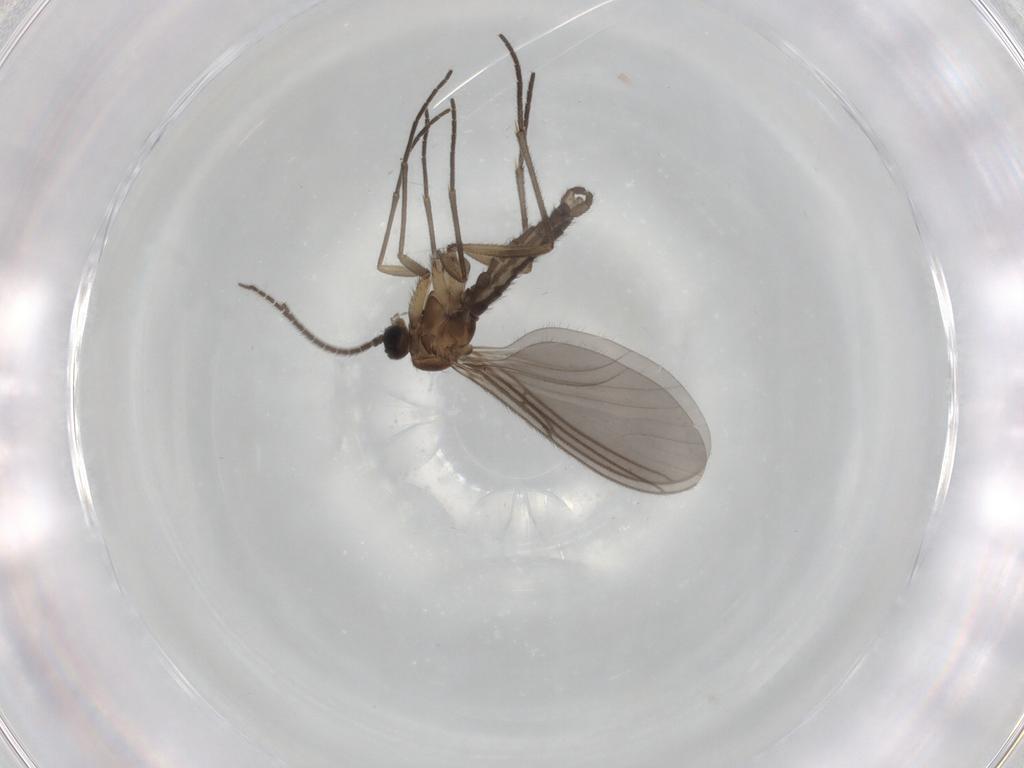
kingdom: Animalia
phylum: Arthropoda
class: Insecta
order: Diptera
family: Sciaridae
